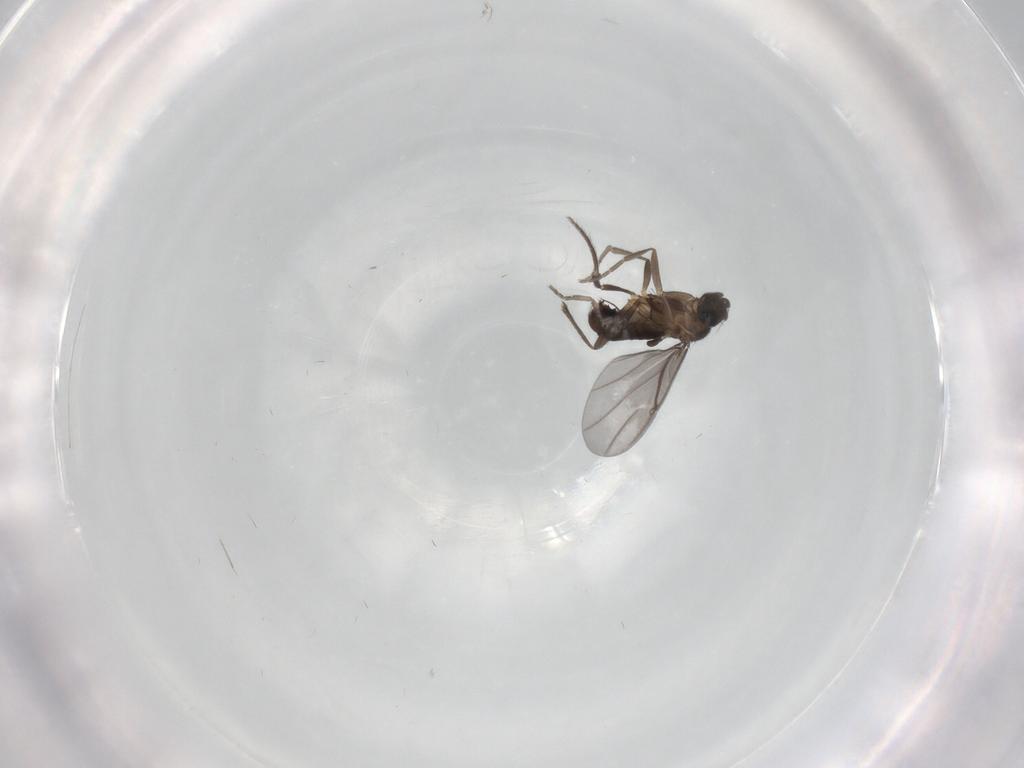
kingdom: Animalia
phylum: Arthropoda
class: Insecta
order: Diptera
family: Phoridae
